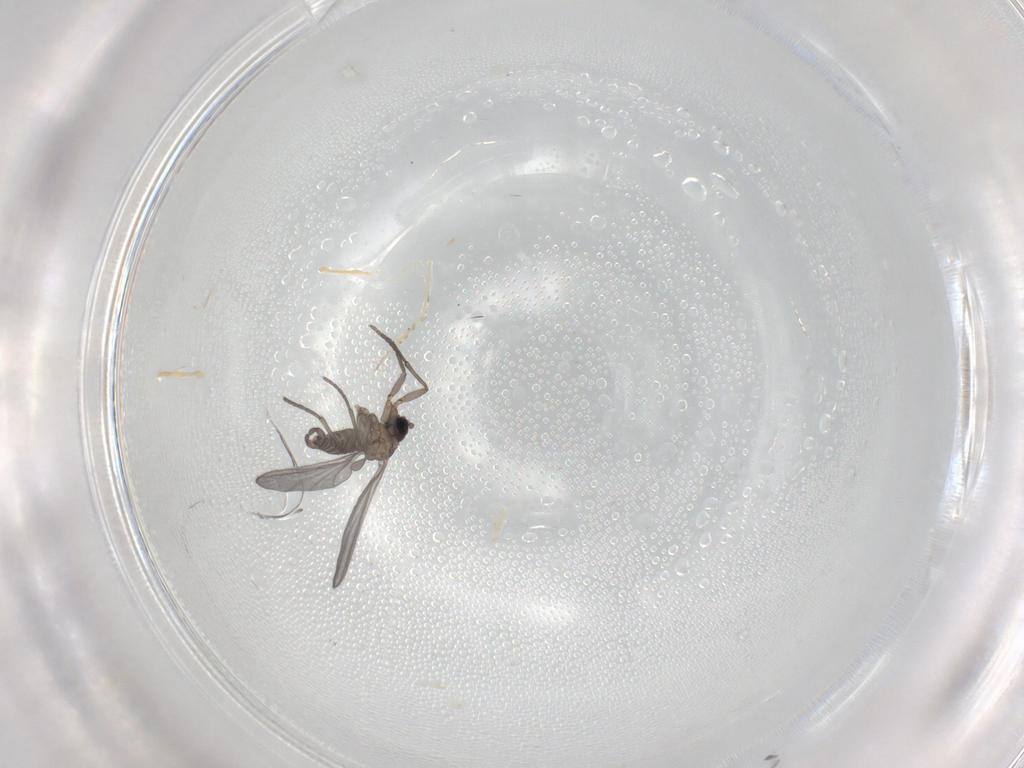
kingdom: Animalia
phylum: Arthropoda
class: Insecta
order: Diptera
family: Sciaridae
